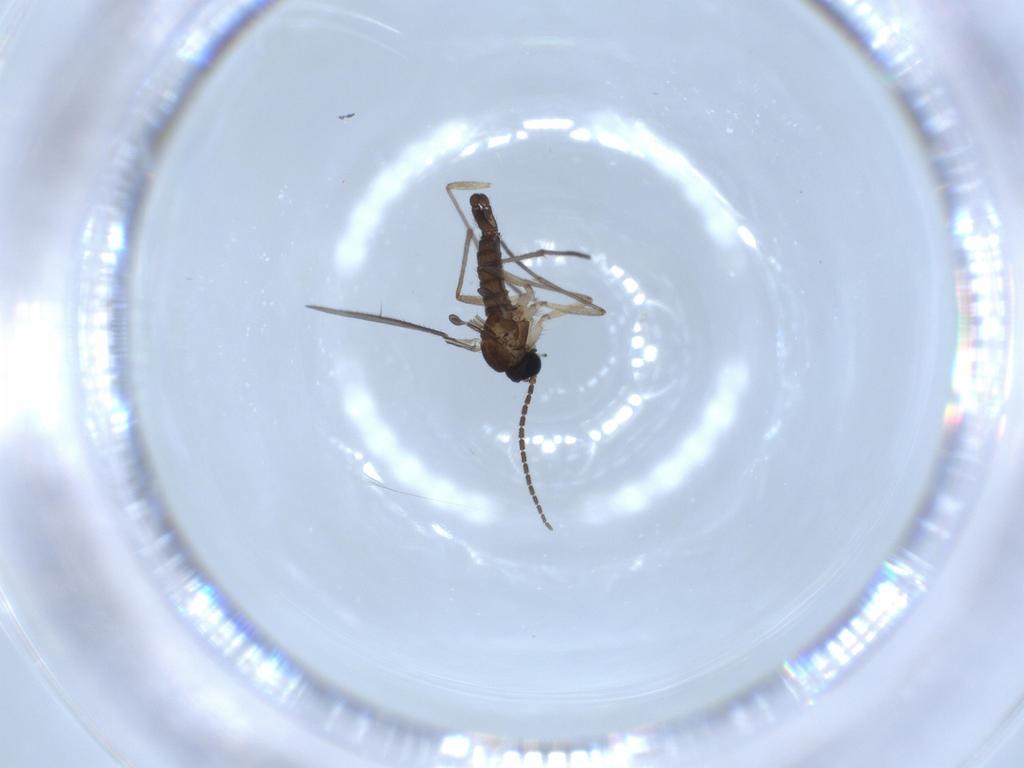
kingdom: Animalia
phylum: Arthropoda
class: Insecta
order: Diptera
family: Sciaridae
